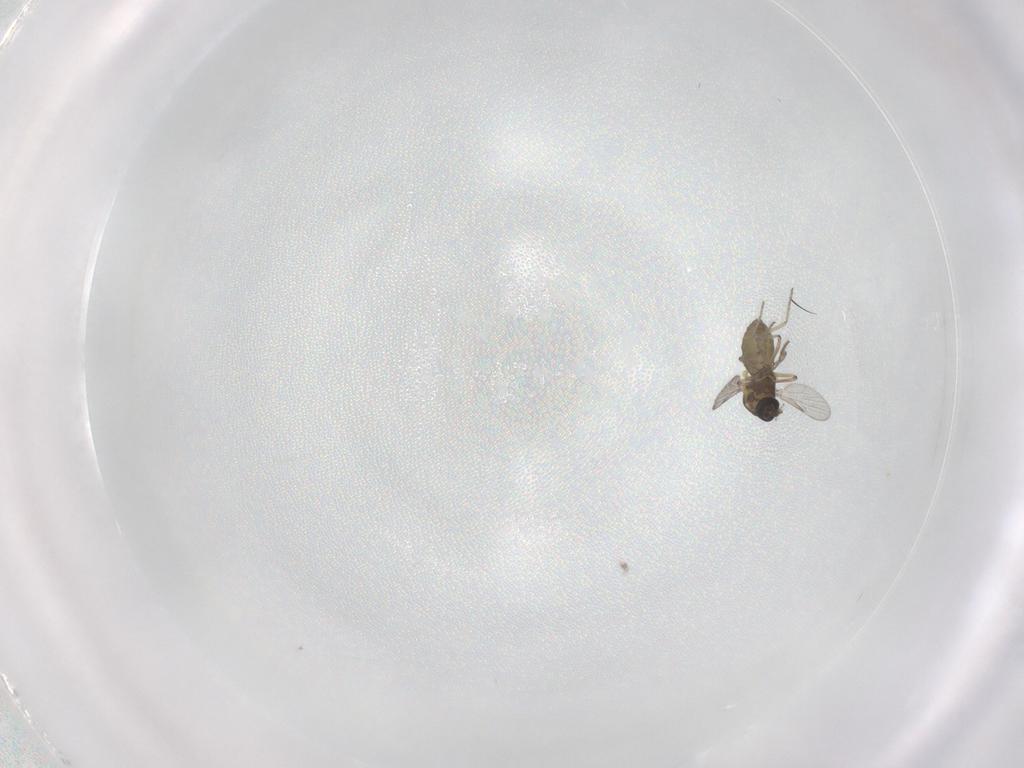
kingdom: Animalia
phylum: Arthropoda
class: Insecta
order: Diptera
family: Ceratopogonidae
